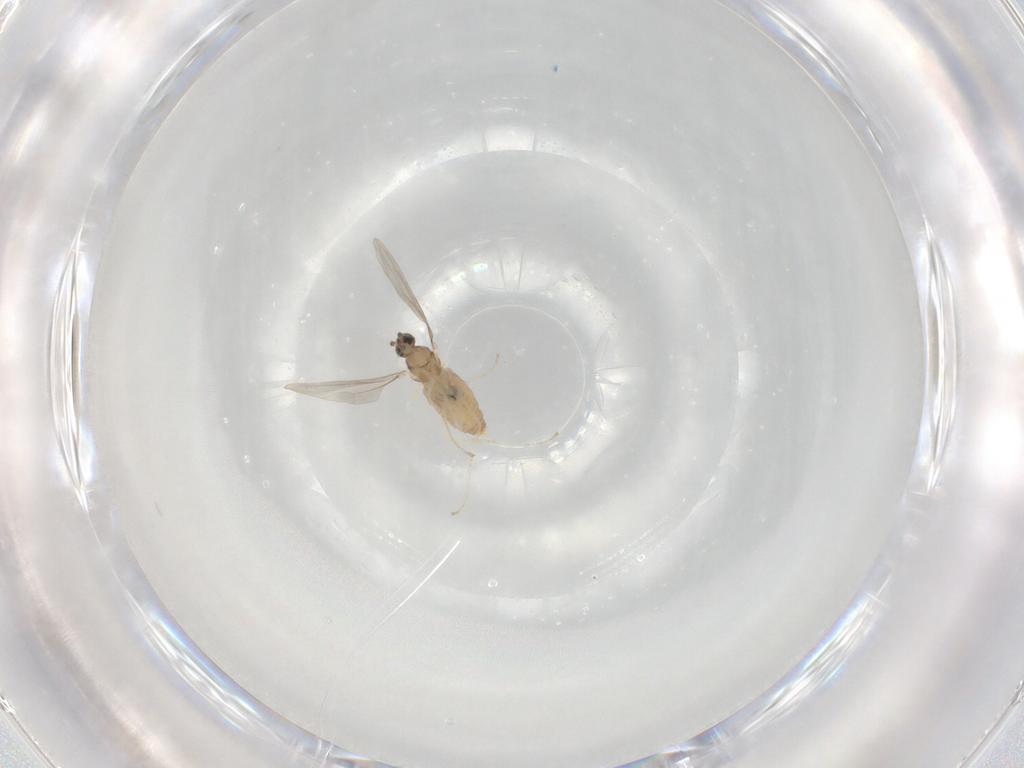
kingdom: Animalia
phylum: Arthropoda
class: Insecta
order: Diptera
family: Cecidomyiidae
